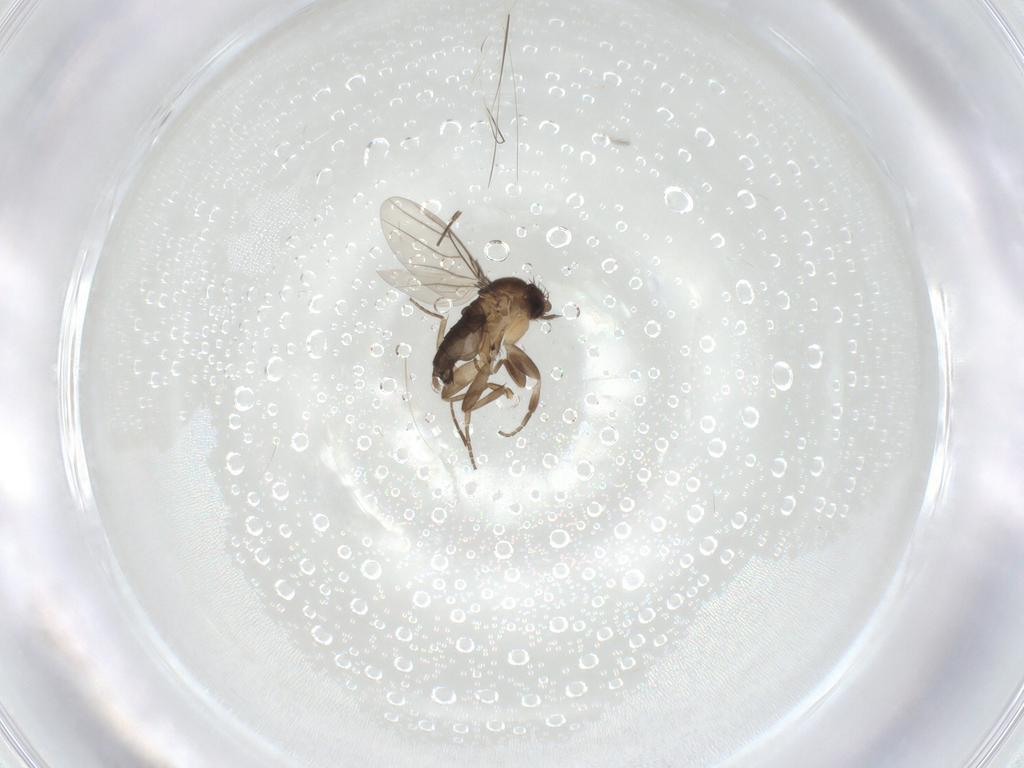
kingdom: Animalia
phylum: Arthropoda
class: Insecta
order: Diptera
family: Phoridae
